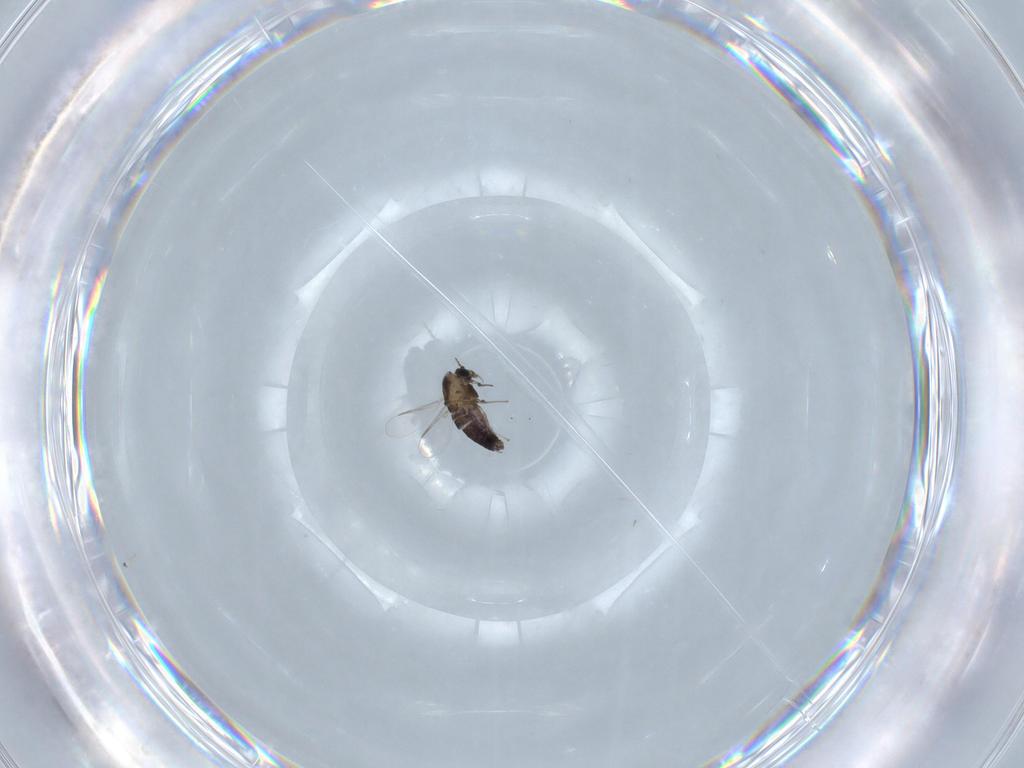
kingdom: Animalia
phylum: Arthropoda
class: Insecta
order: Diptera
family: Chironomidae
